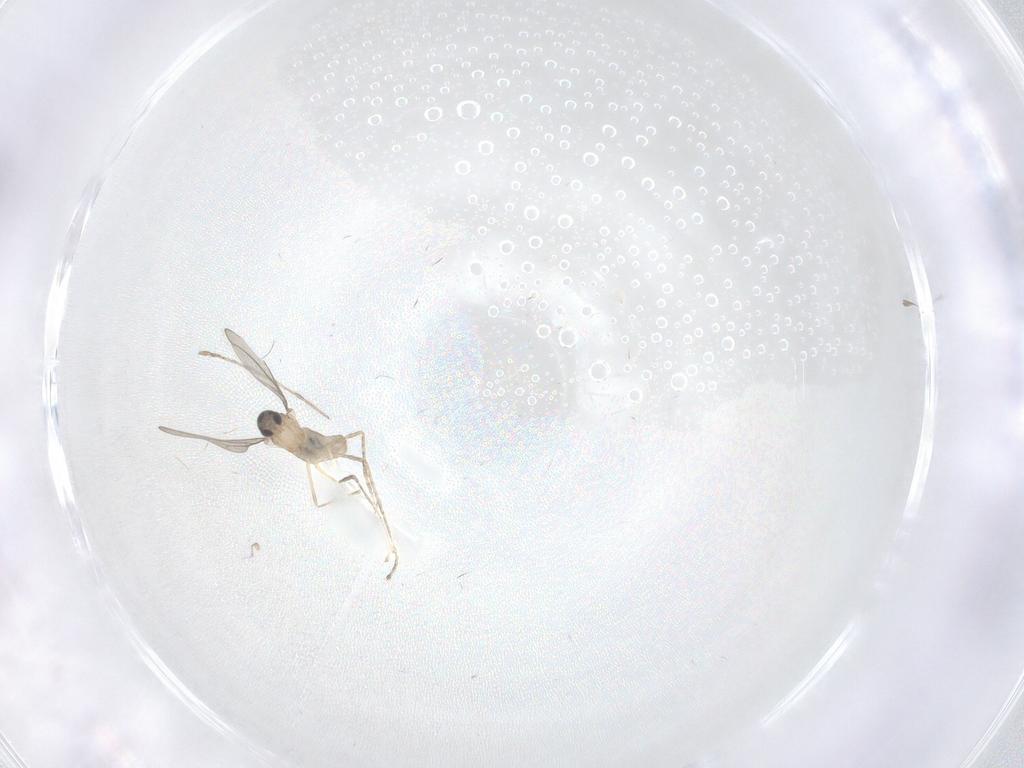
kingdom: Animalia
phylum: Arthropoda
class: Insecta
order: Diptera
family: Cecidomyiidae
